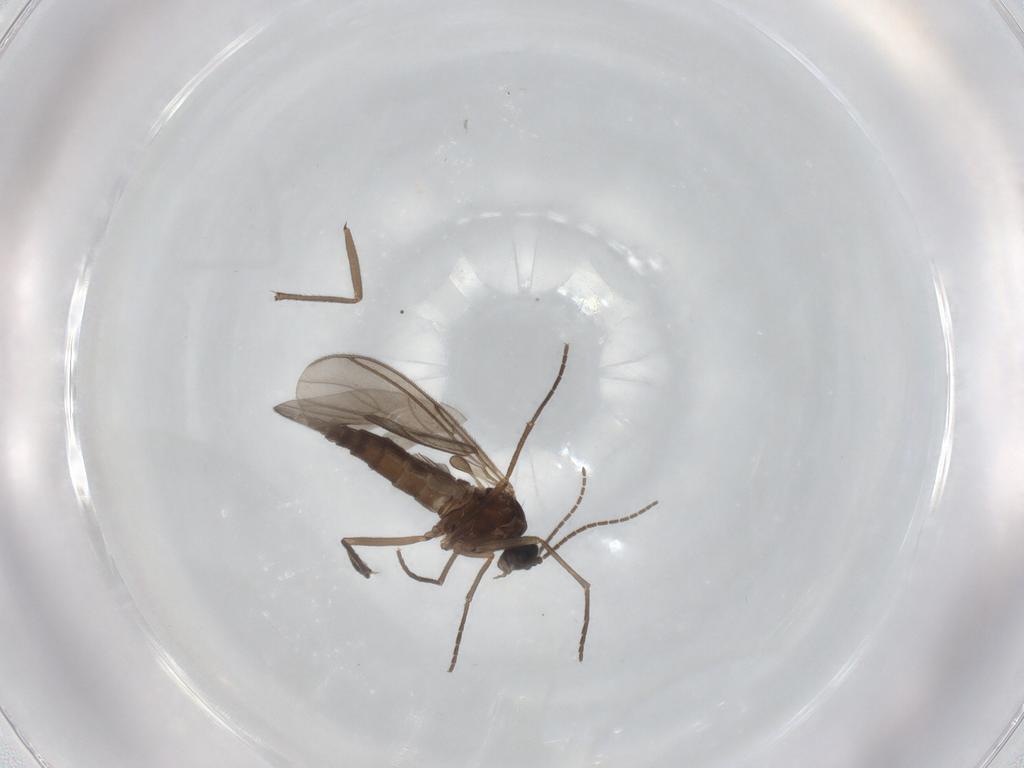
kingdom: Animalia
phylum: Arthropoda
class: Insecta
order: Diptera
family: Sciaridae
